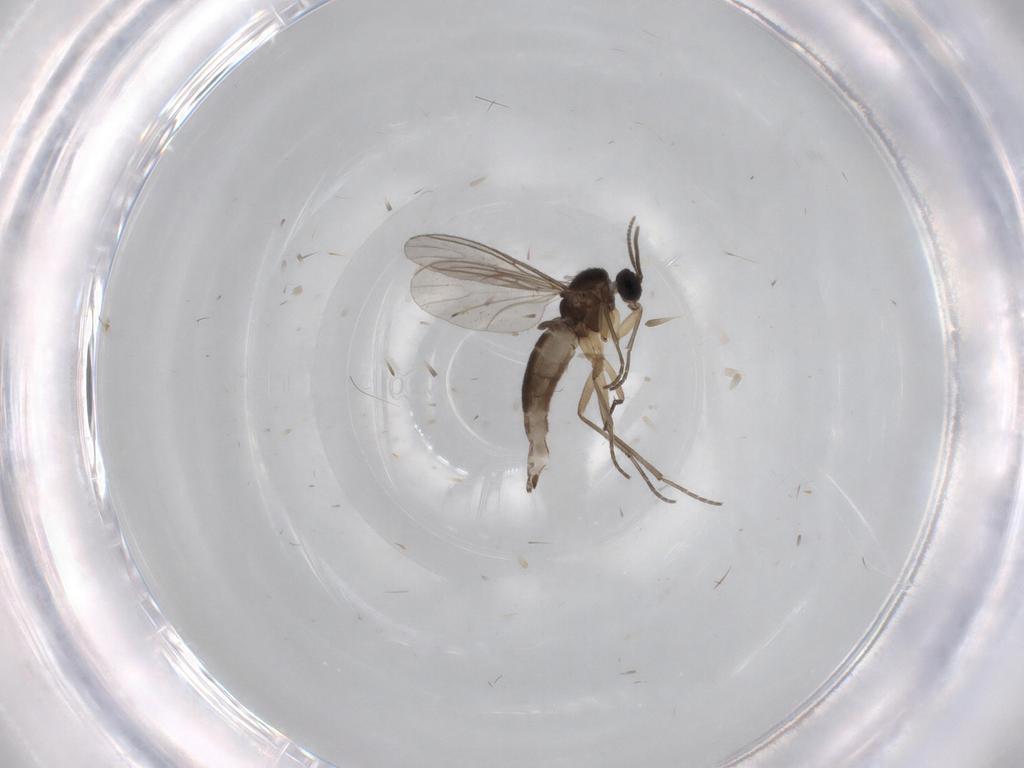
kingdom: Animalia
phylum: Arthropoda
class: Insecta
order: Diptera
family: Sciaridae
